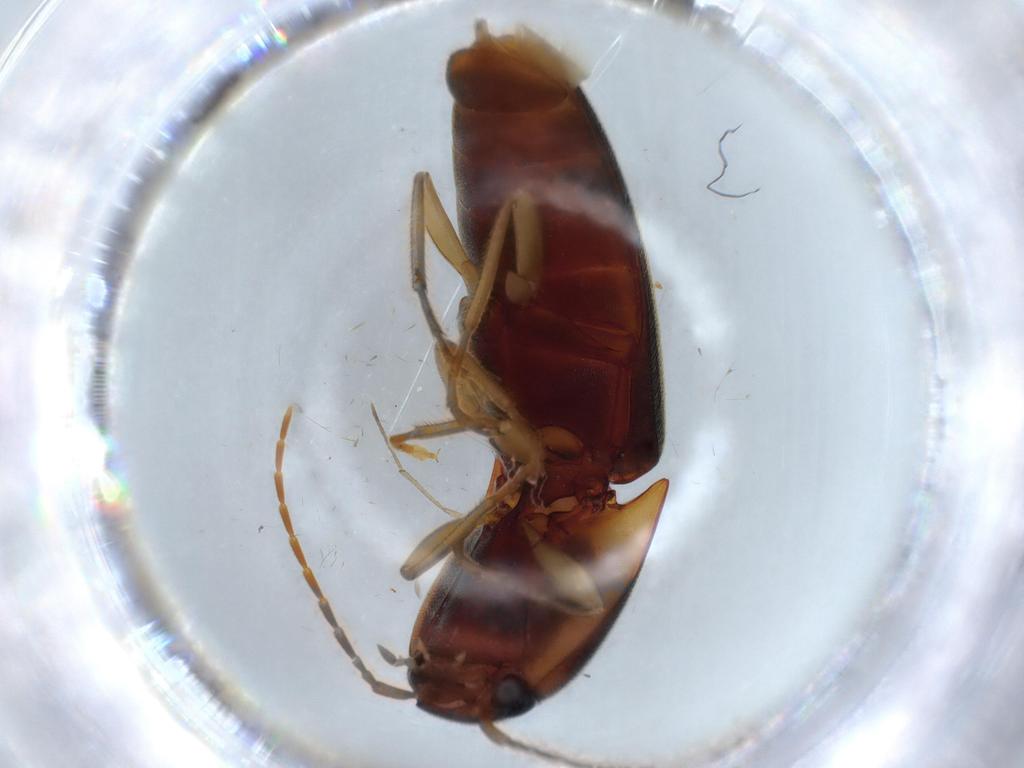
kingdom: Animalia
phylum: Arthropoda
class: Insecta
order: Coleoptera
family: Elateridae
